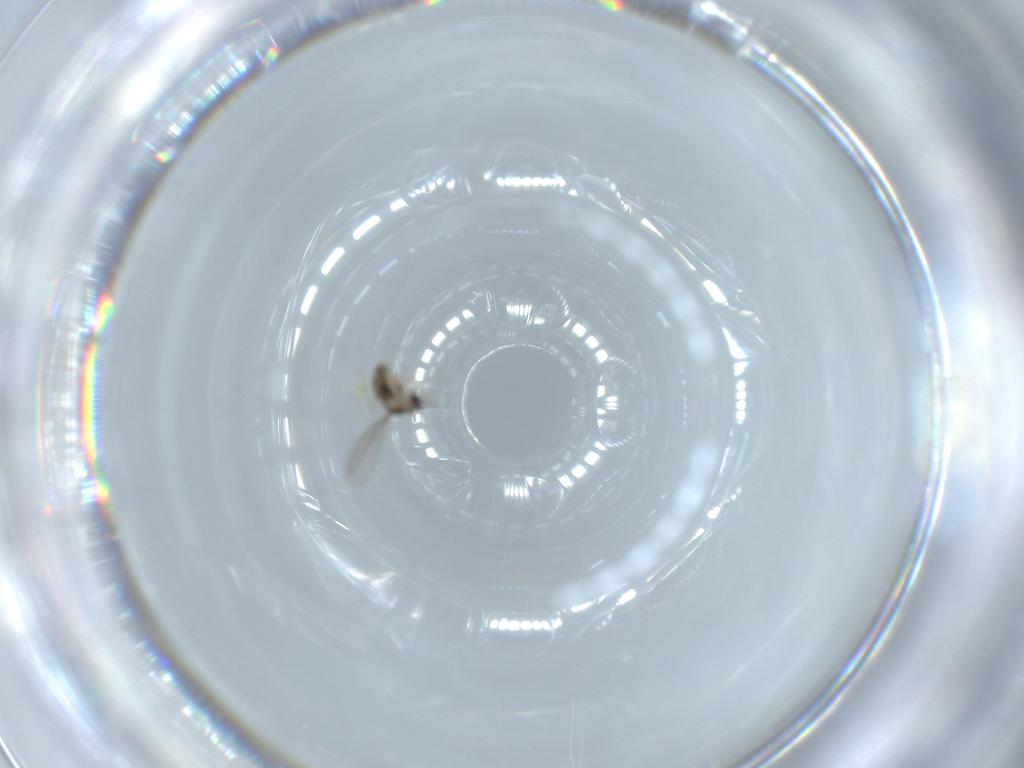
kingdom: Animalia
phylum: Arthropoda
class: Insecta
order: Diptera
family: Cecidomyiidae
